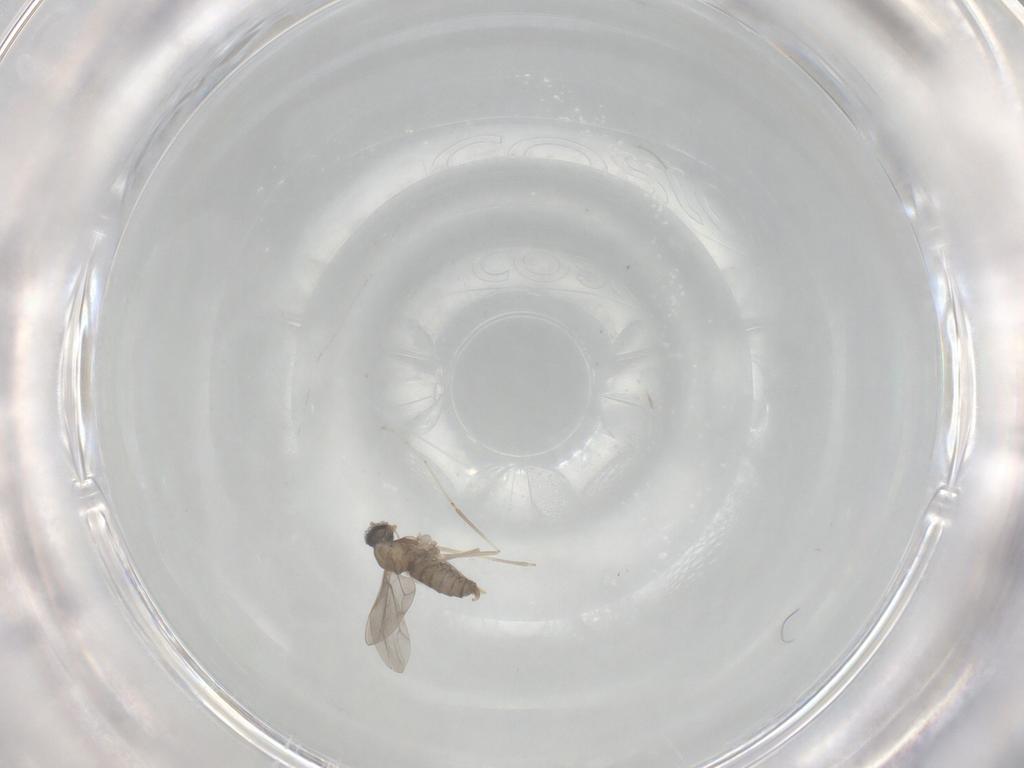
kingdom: Animalia
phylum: Arthropoda
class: Insecta
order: Diptera
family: Cecidomyiidae
